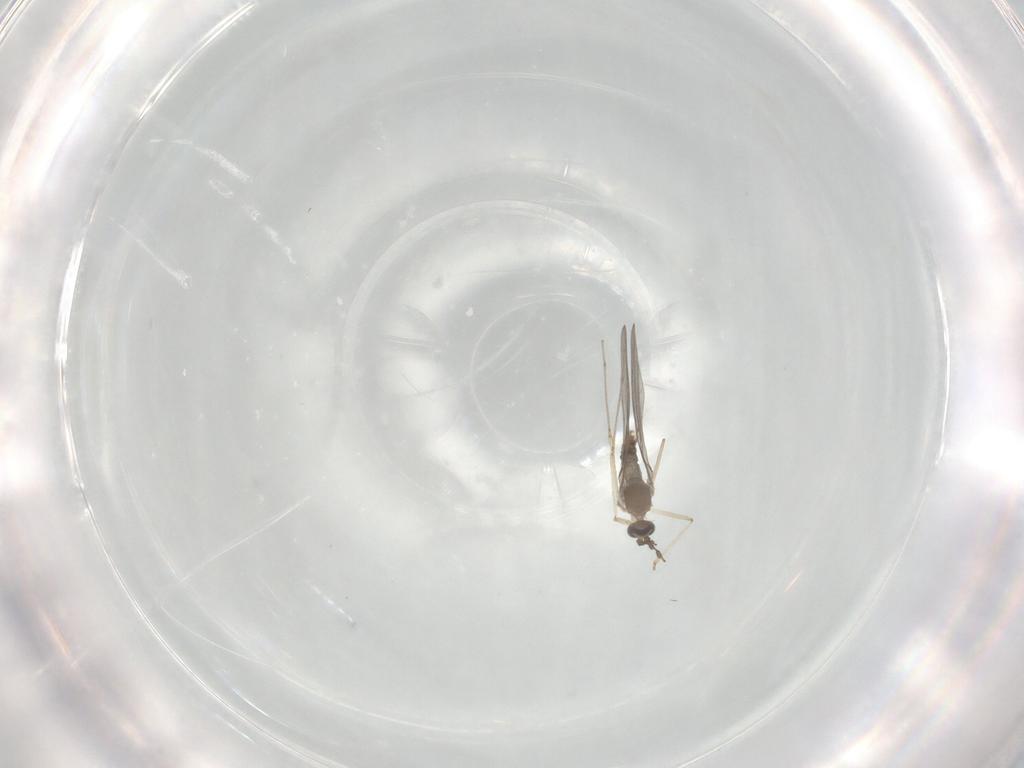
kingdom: Animalia
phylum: Arthropoda
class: Insecta
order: Diptera
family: Cecidomyiidae
